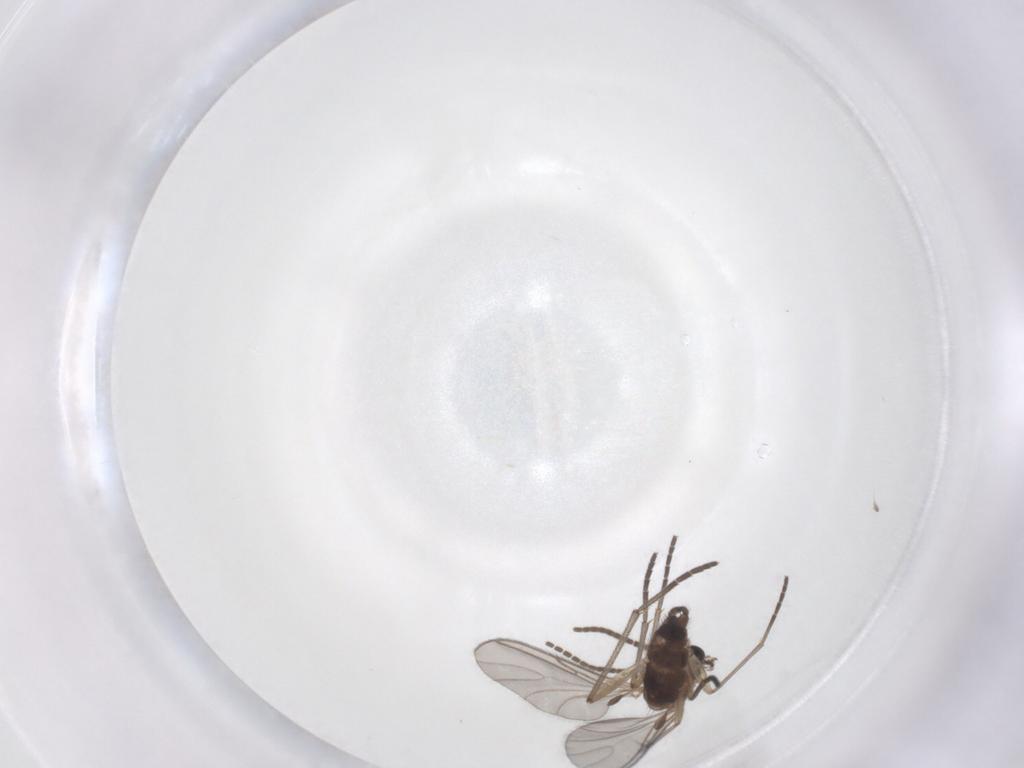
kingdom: Animalia
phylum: Arthropoda
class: Insecta
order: Diptera
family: Sciaridae
